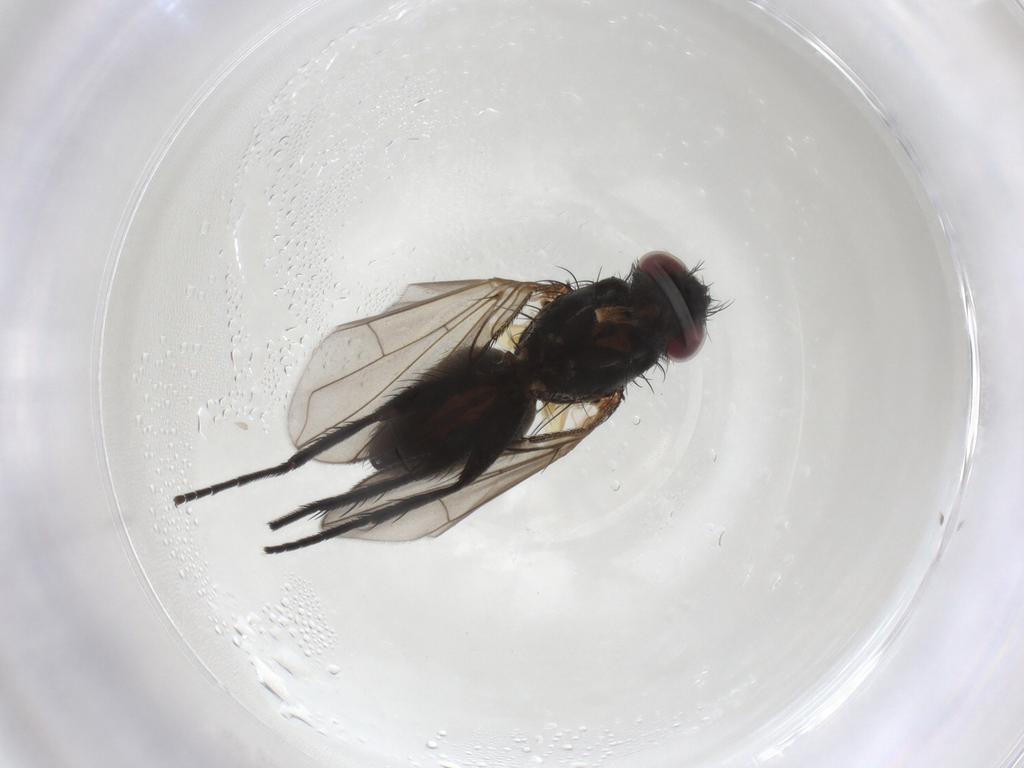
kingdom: Animalia
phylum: Arthropoda
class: Insecta
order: Diptera
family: Tachinidae
